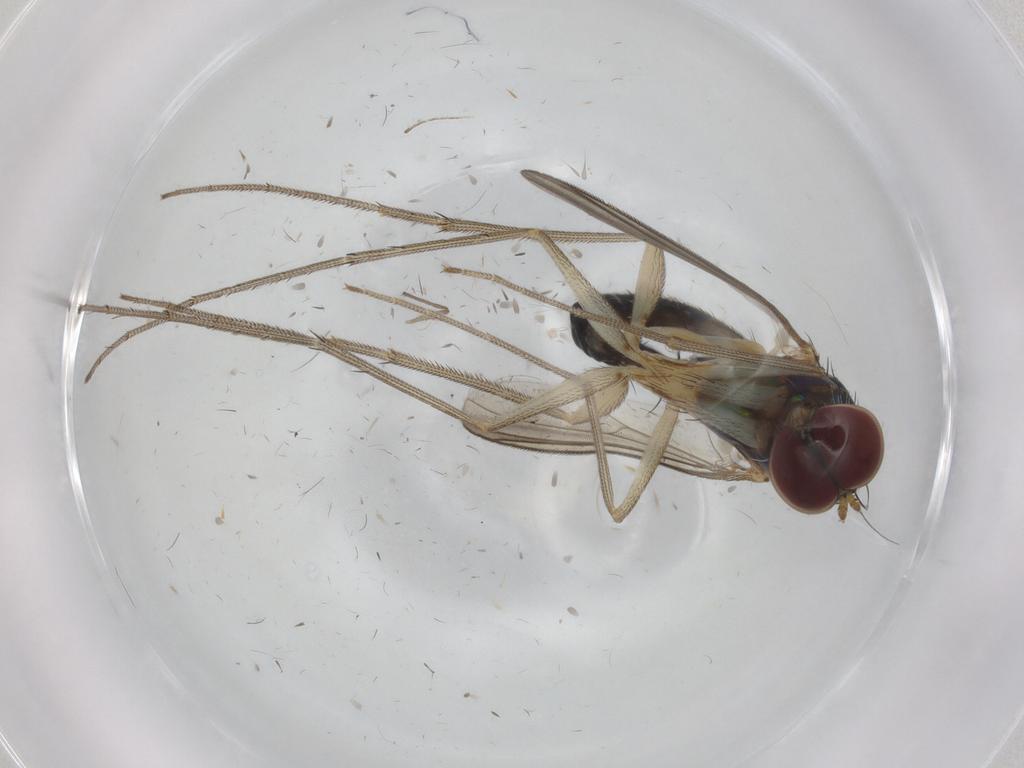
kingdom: Animalia
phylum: Arthropoda
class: Insecta
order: Diptera
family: Dolichopodidae
